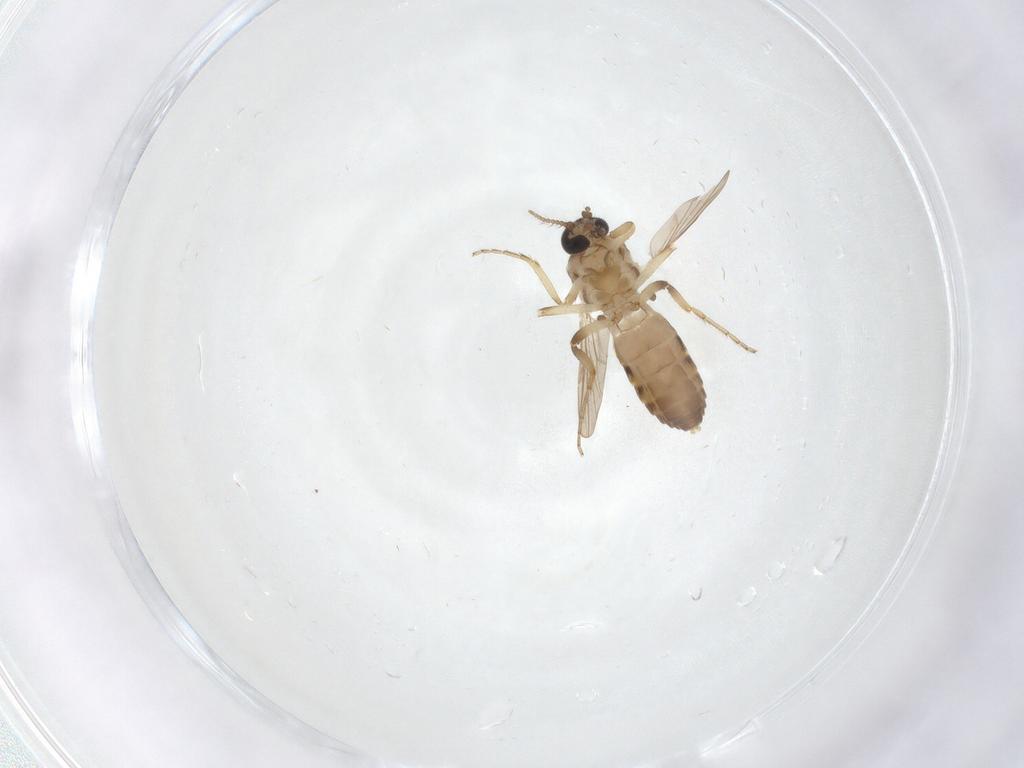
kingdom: Animalia
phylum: Arthropoda
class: Insecta
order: Diptera
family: Ceratopogonidae
